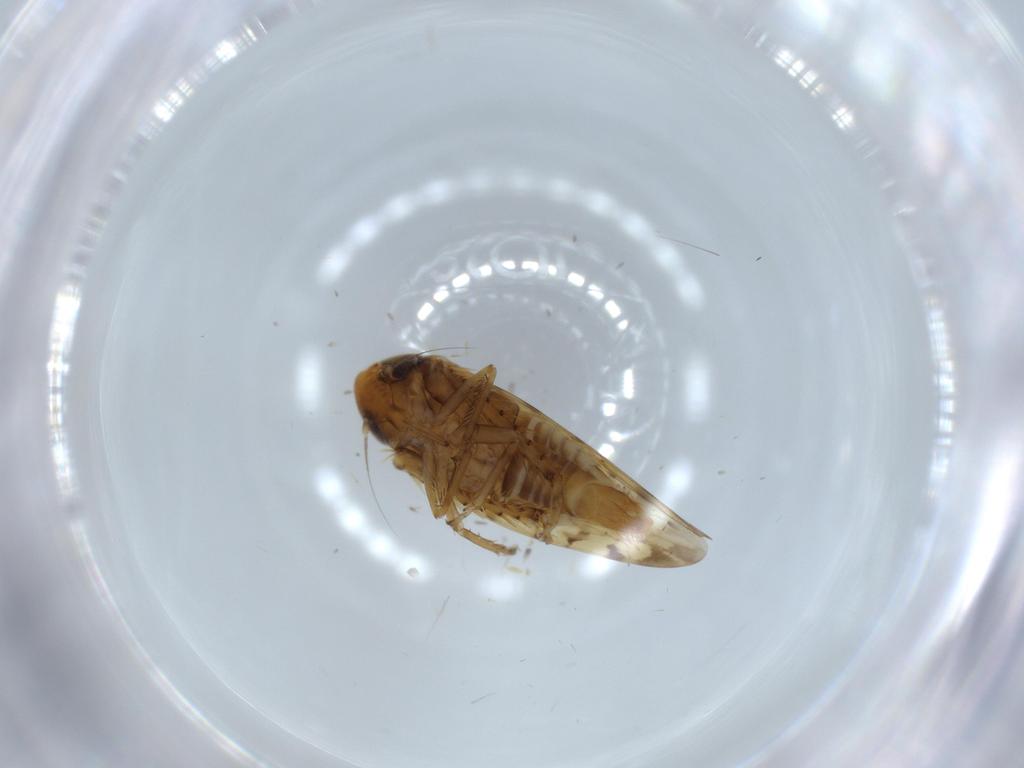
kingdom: Animalia
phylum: Arthropoda
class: Insecta
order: Hemiptera
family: Cicadellidae
